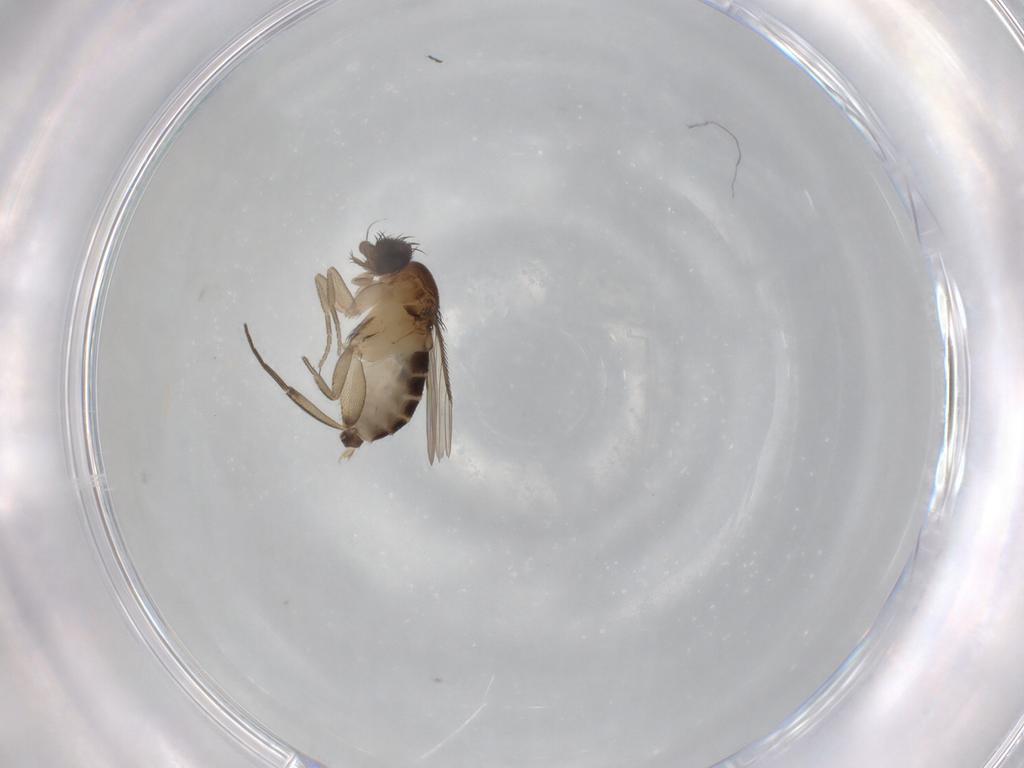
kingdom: Animalia
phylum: Arthropoda
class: Insecta
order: Diptera
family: Phoridae
